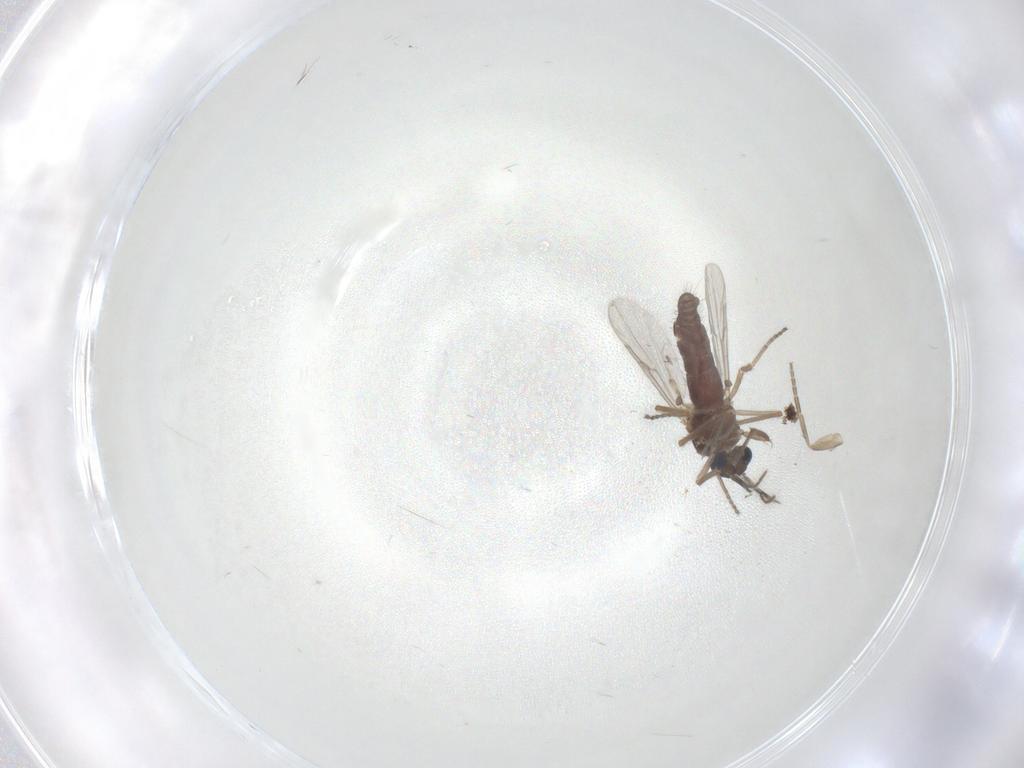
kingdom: Animalia
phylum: Arthropoda
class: Insecta
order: Diptera
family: Ceratopogonidae
